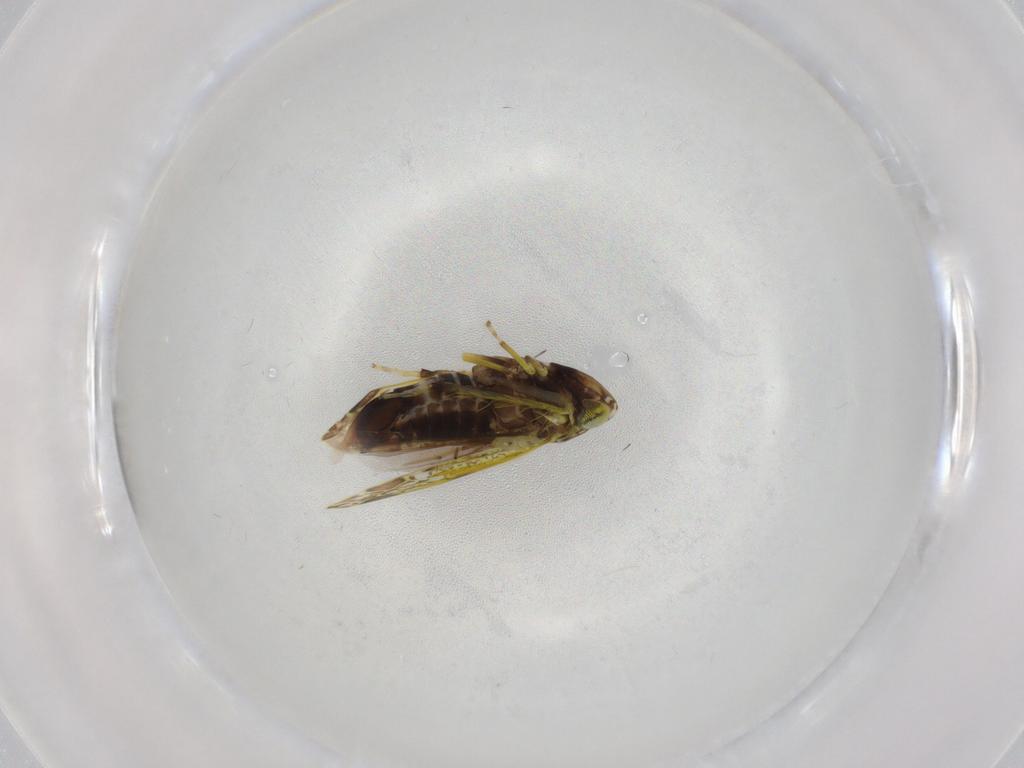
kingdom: Animalia
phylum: Arthropoda
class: Insecta
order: Hemiptera
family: Cicadellidae
